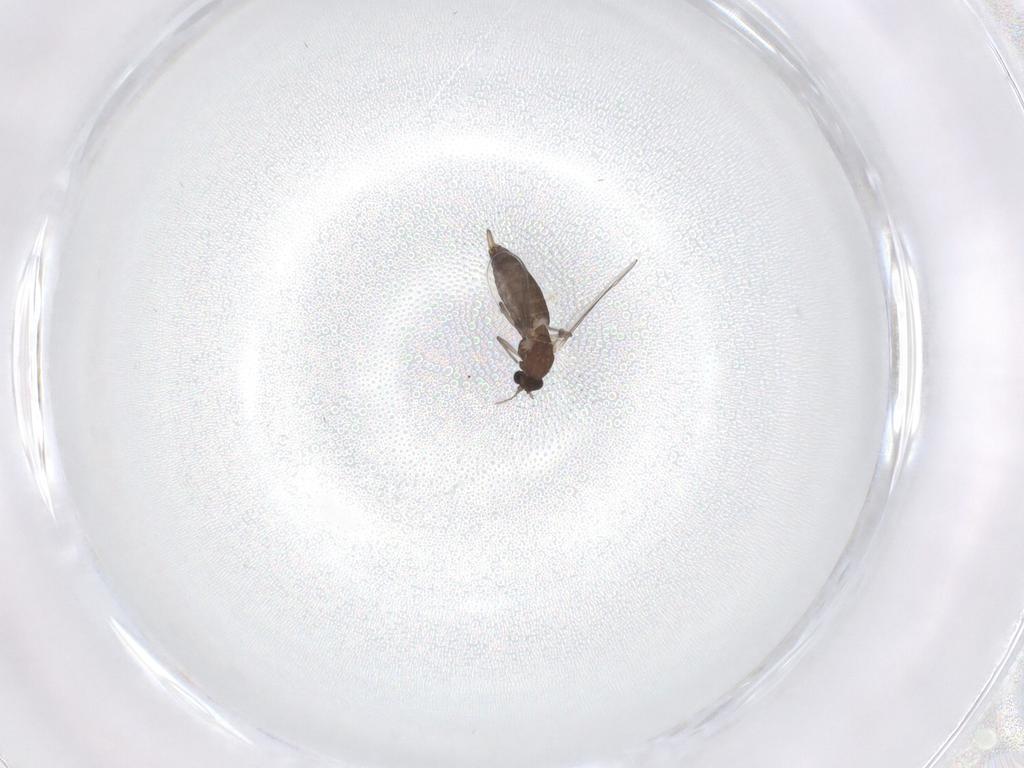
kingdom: Animalia
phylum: Arthropoda
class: Insecta
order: Diptera
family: Chironomidae
